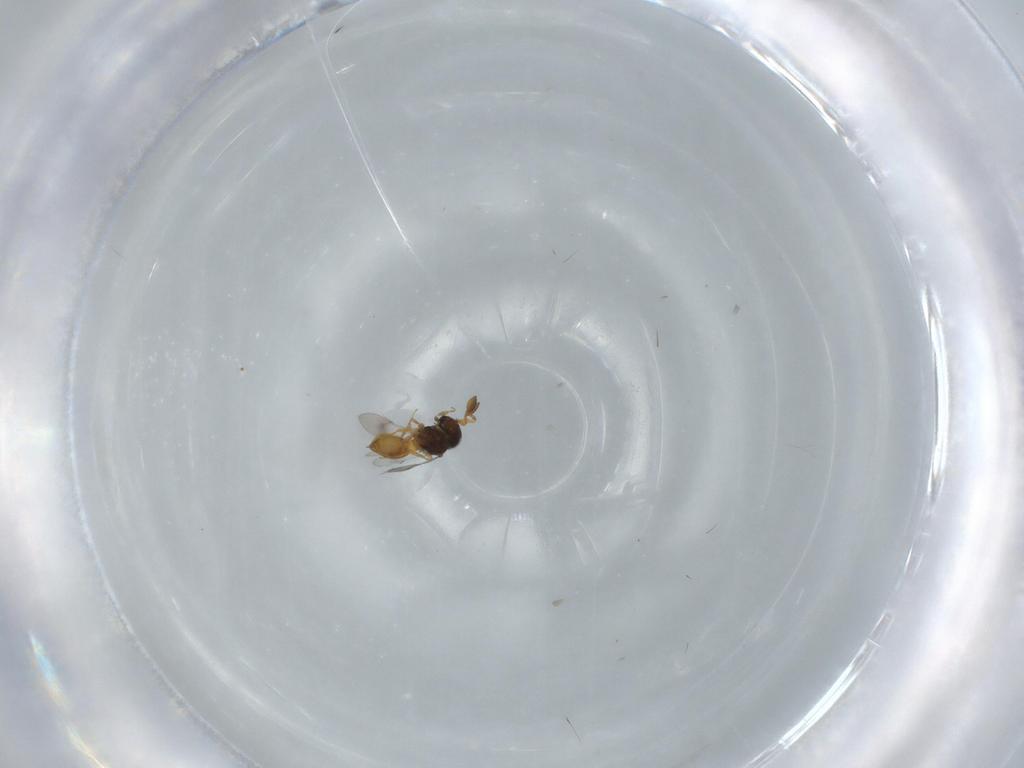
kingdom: Animalia
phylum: Arthropoda
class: Insecta
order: Hymenoptera
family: Scelionidae
